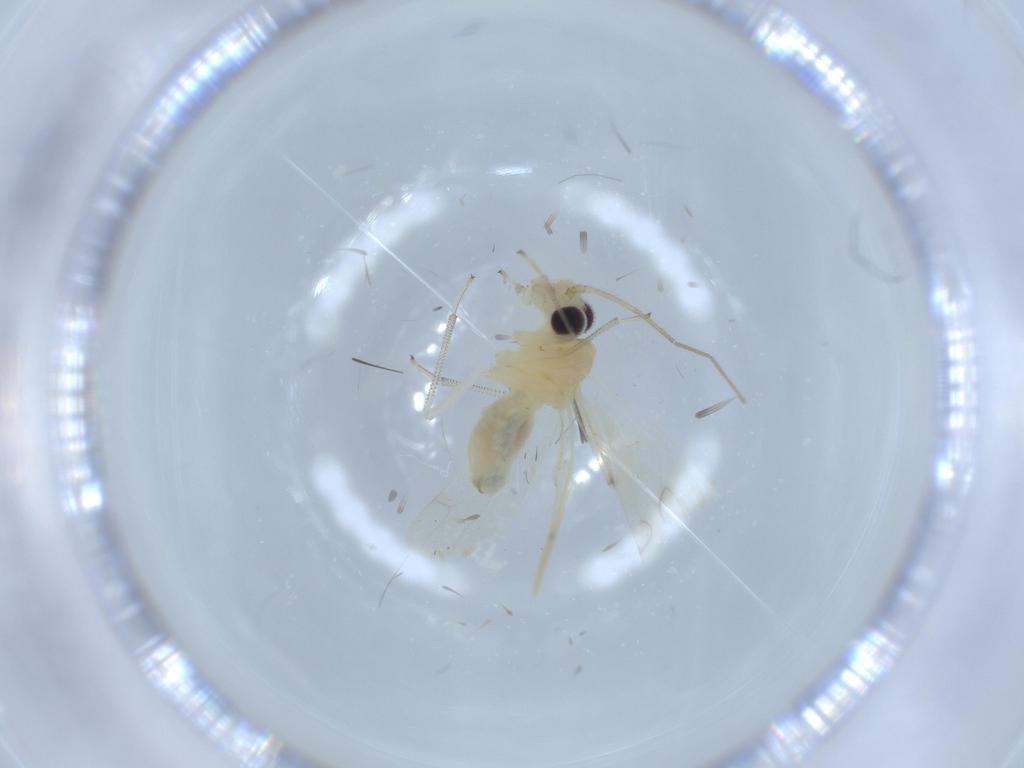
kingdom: Animalia
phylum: Arthropoda
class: Insecta
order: Psocodea
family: Caeciliusidae
